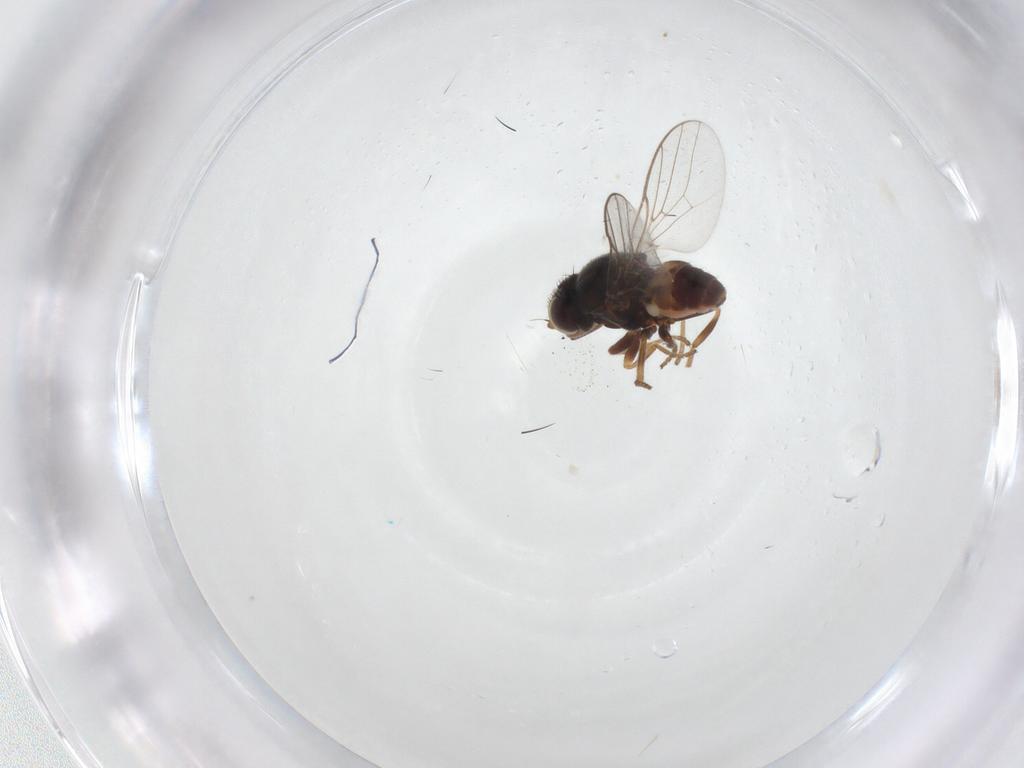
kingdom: Animalia
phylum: Arthropoda
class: Insecta
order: Diptera
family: Chloropidae
